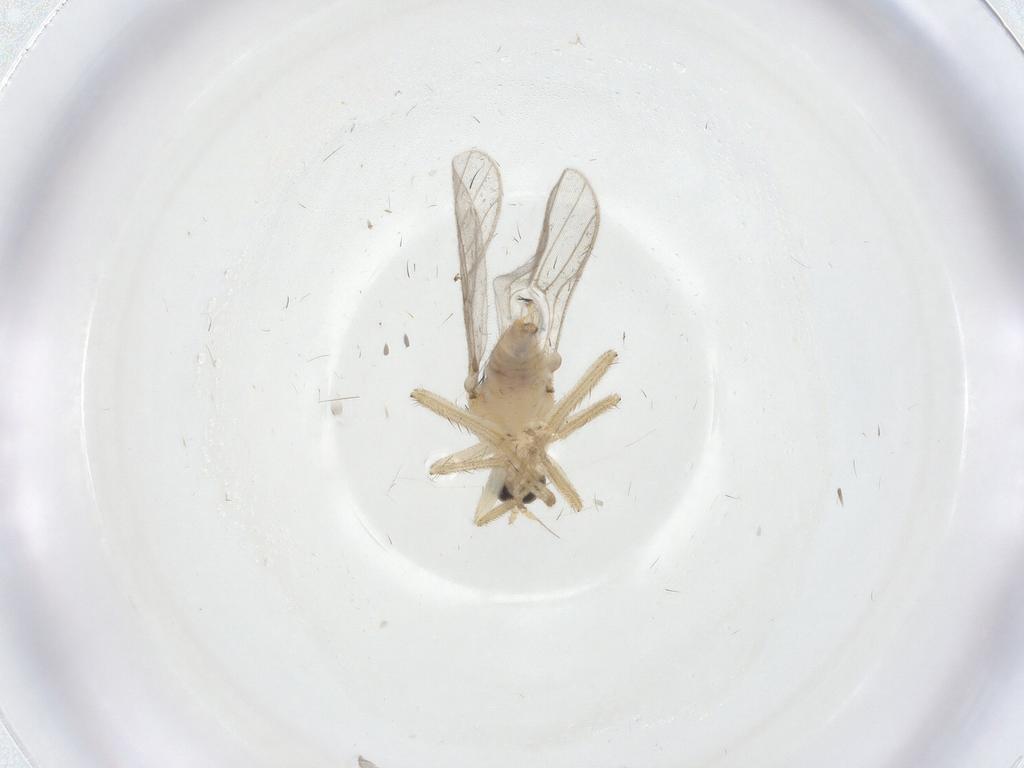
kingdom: Animalia
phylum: Arthropoda
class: Insecta
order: Diptera
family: Hybotidae
